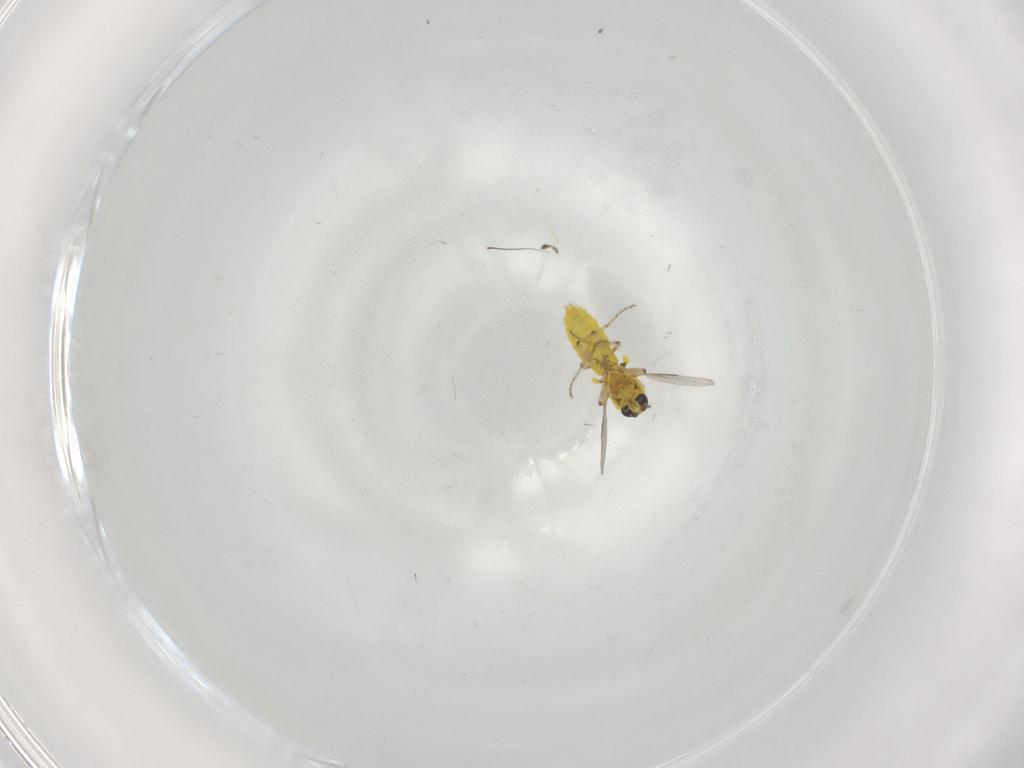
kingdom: Animalia
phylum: Arthropoda
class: Insecta
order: Diptera
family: Ceratopogonidae
